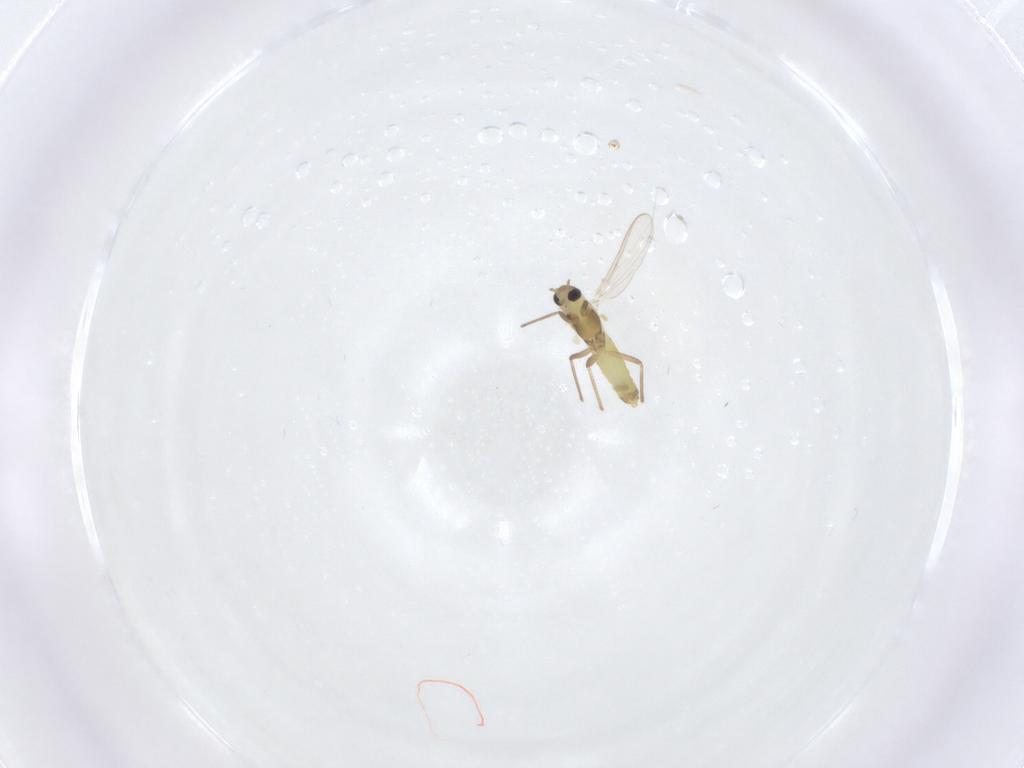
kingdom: Animalia
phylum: Arthropoda
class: Insecta
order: Diptera
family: Chironomidae
